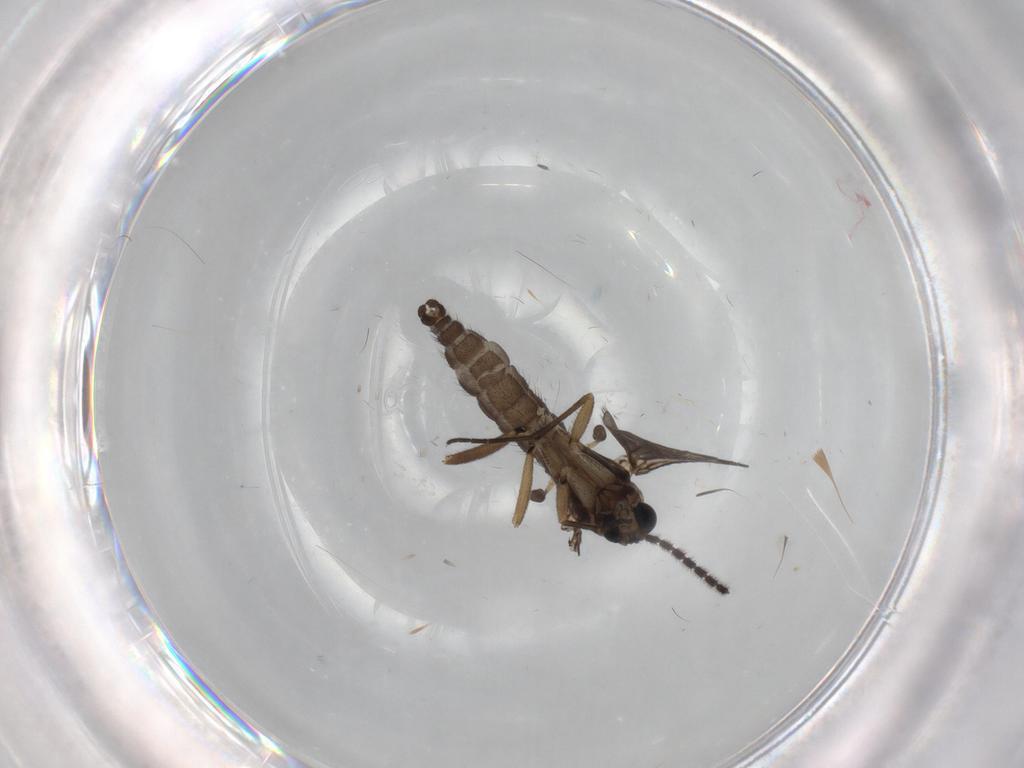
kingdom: Animalia
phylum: Arthropoda
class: Insecta
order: Diptera
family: Sciaridae
